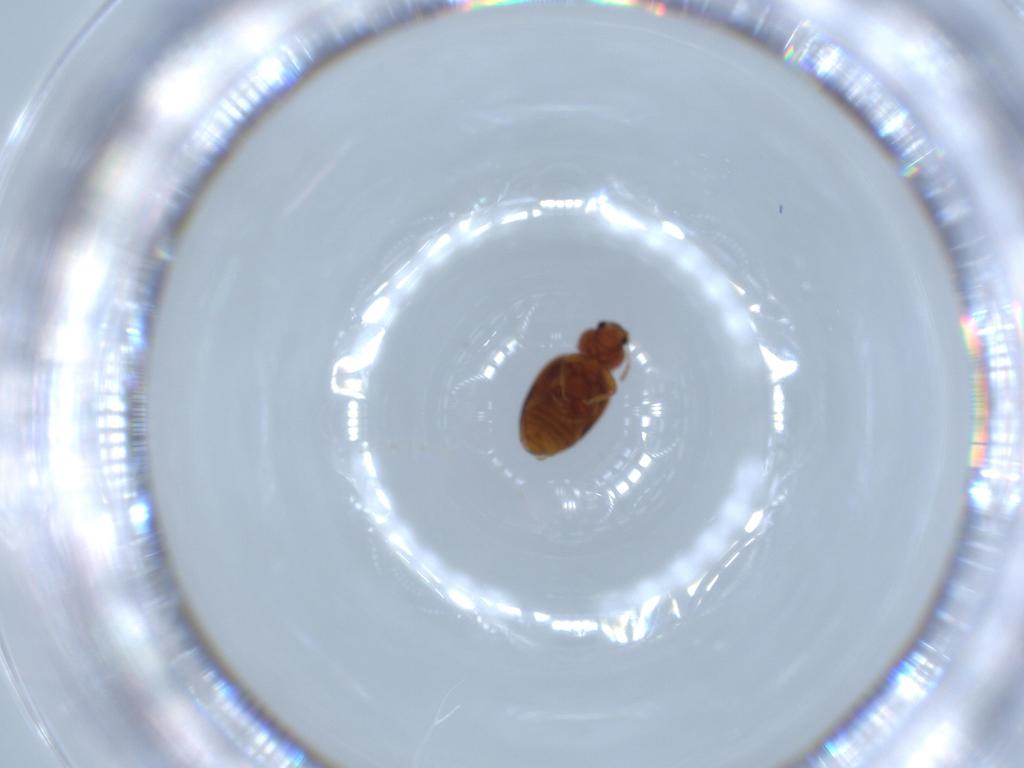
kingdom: Animalia
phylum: Arthropoda
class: Insecta
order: Coleoptera
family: Latridiidae
